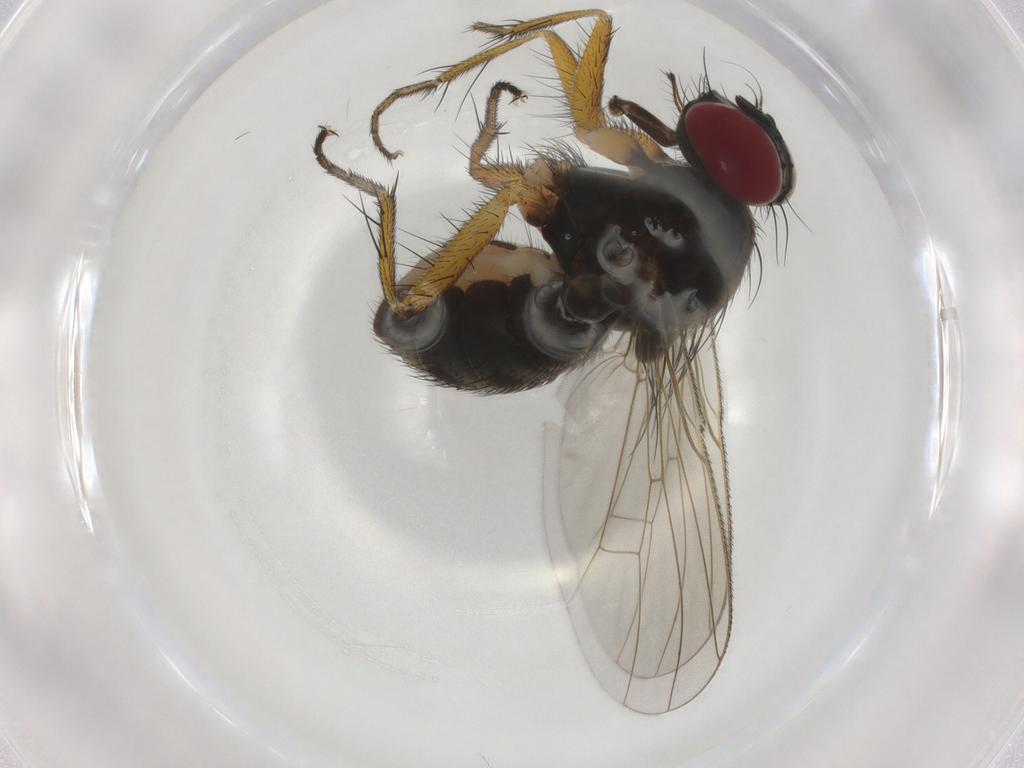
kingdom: Animalia
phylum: Arthropoda
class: Insecta
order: Diptera
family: Muscidae
